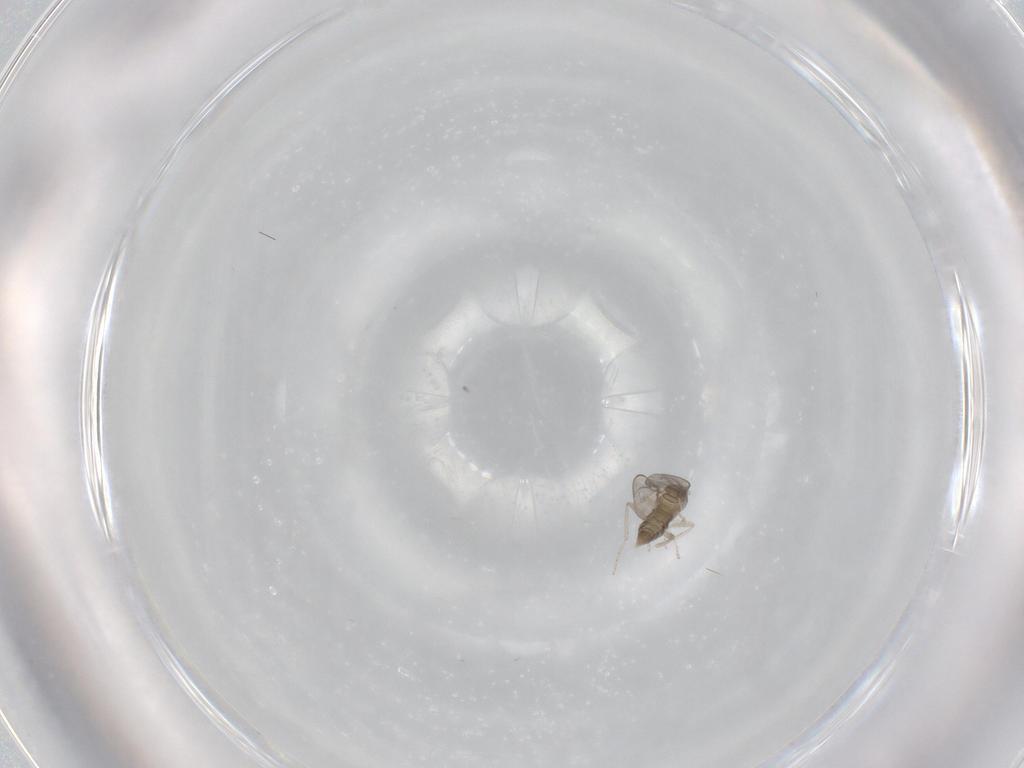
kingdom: Animalia
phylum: Arthropoda
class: Insecta
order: Diptera
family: Cecidomyiidae
